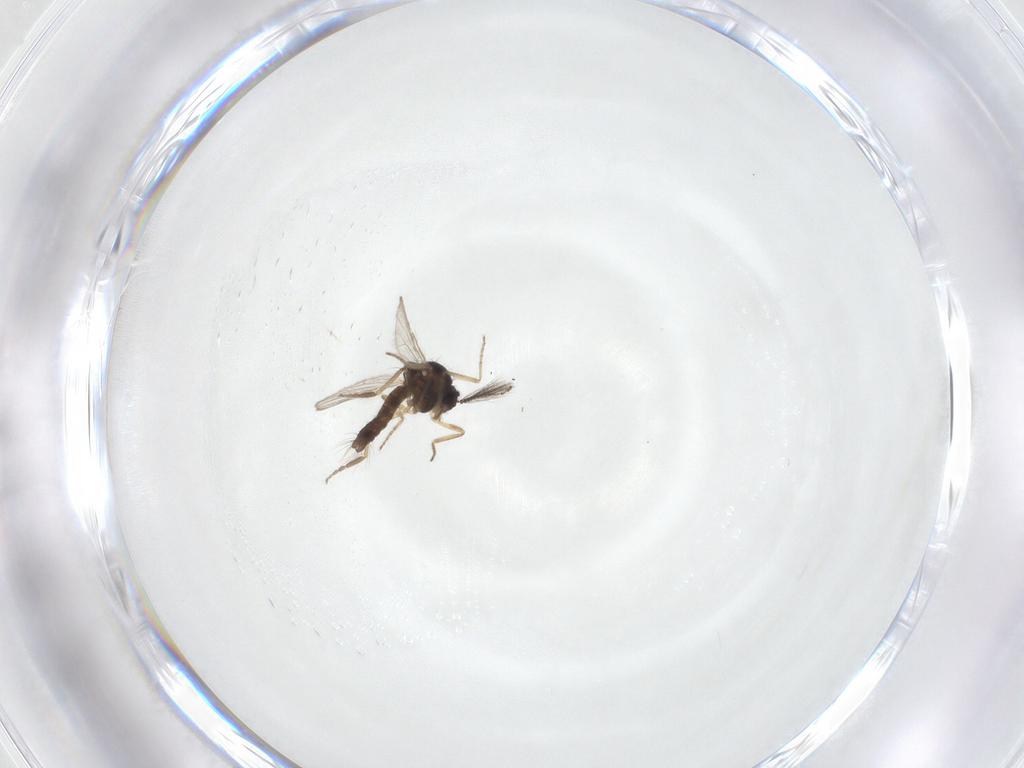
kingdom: Animalia
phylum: Arthropoda
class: Insecta
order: Diptera
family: Ceratopogonidae
